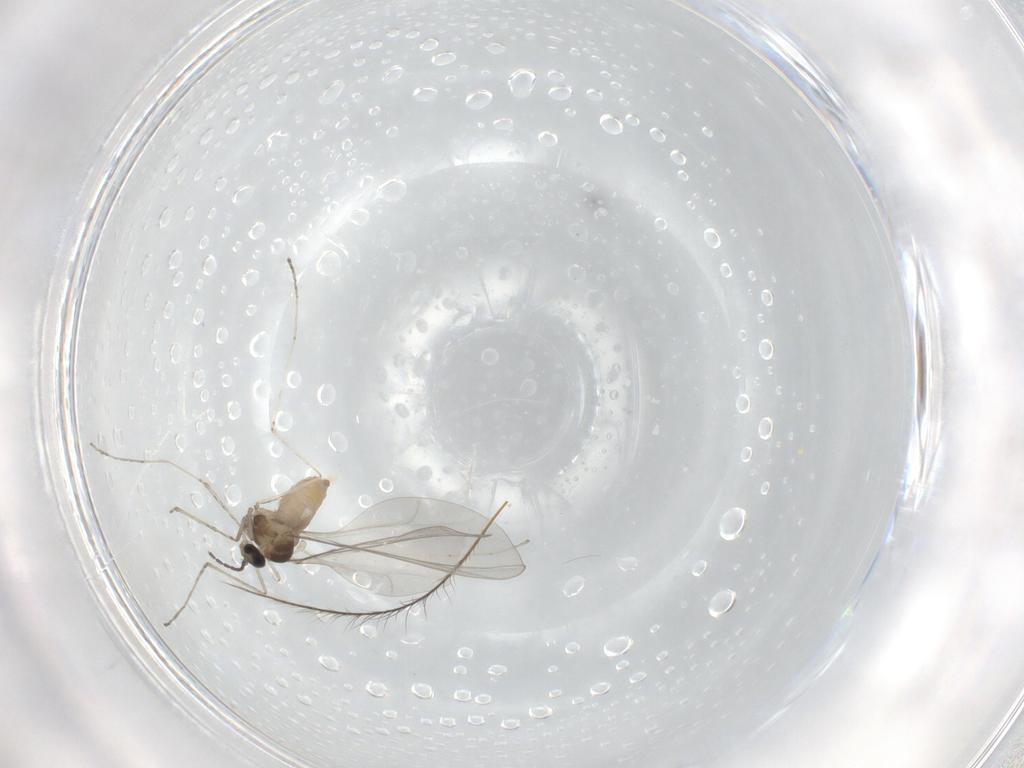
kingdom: Animalia
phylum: Arthropoda
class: Insecta
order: Diptera
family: Cecidomyiidae
